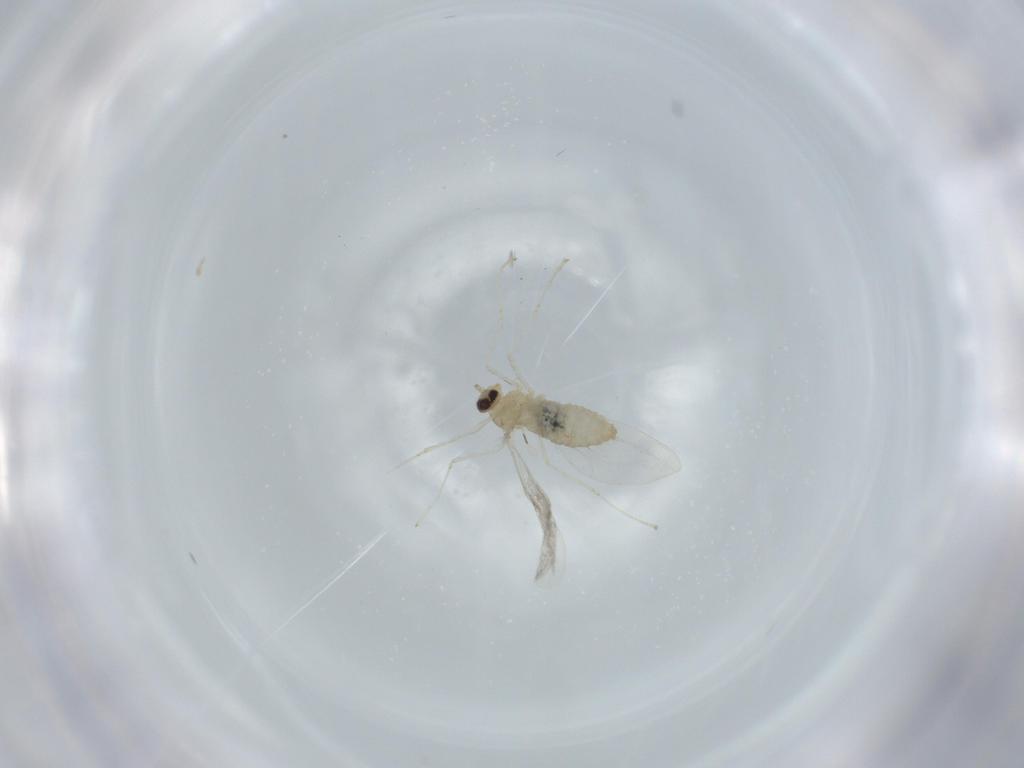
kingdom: Animalia
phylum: Arthropoda
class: Insecta
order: Diptera
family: Cecidomyiidae
